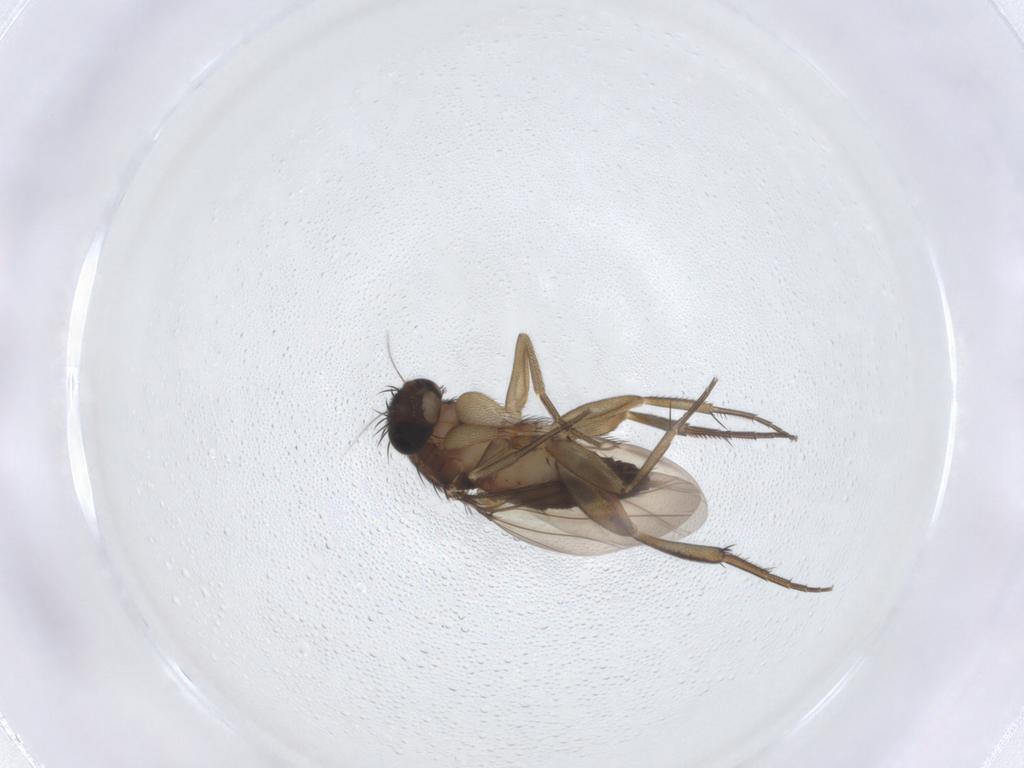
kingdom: Animalia
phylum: Arthropoda
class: Insecta
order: Diptera
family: Phoridae
